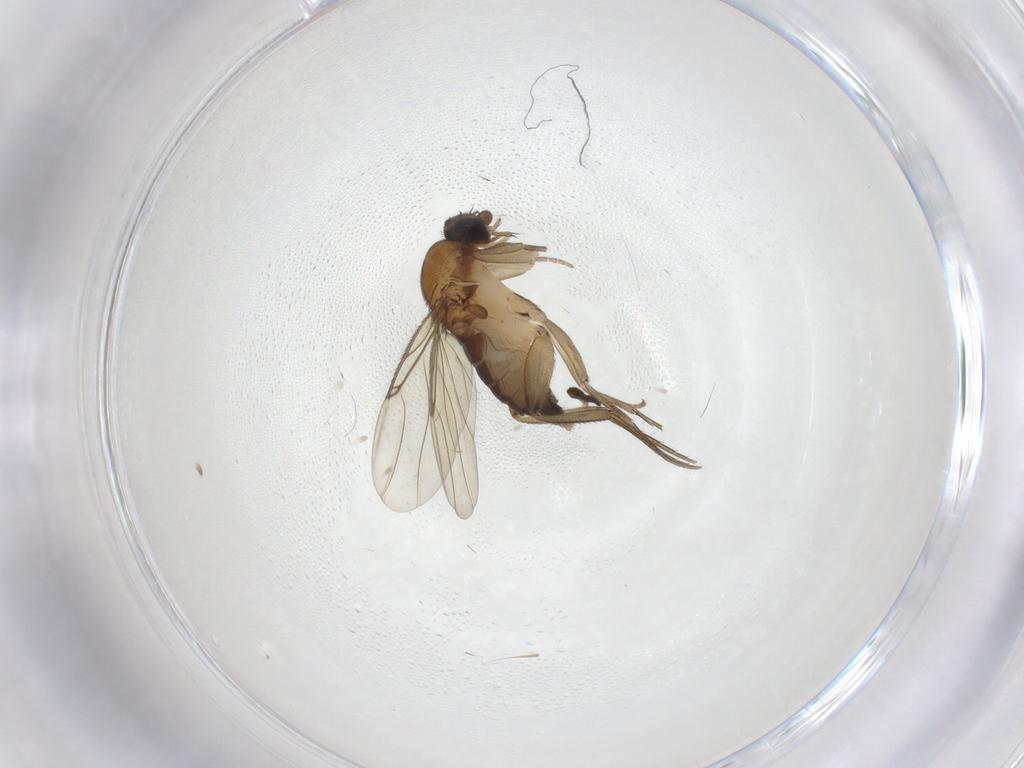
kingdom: Animalia
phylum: Arthropoda
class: Insecta
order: Diptera
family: Phoridae
